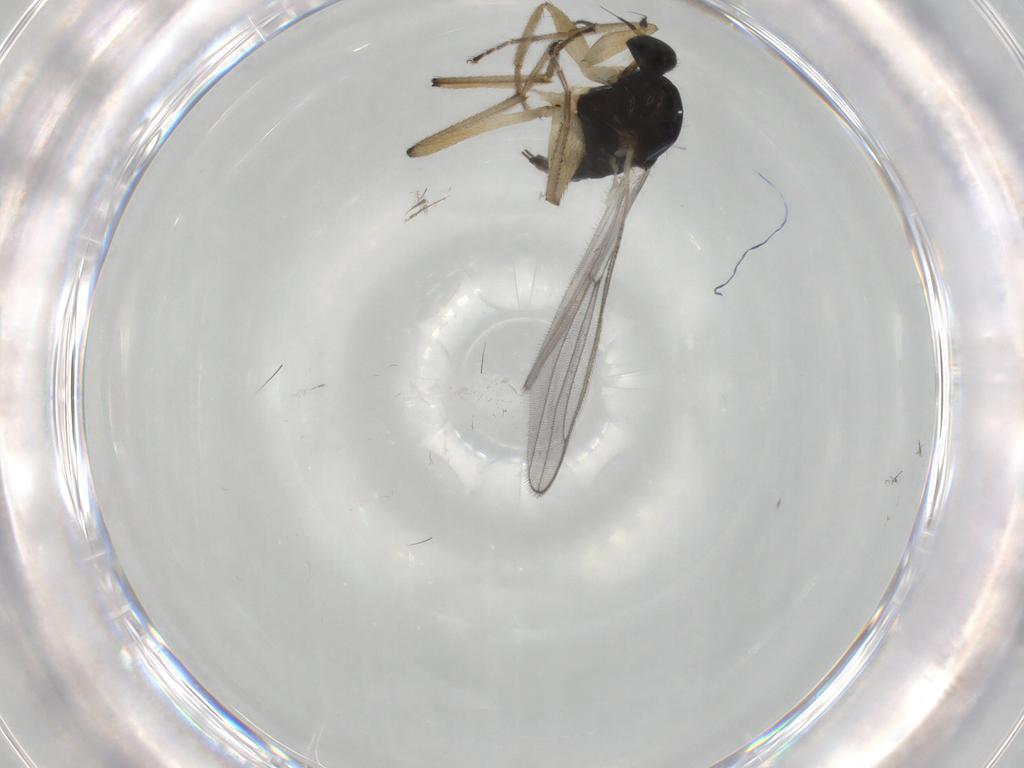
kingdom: Animalia
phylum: Arthropoda
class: Insecta
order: Diptera
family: Hybotidae
